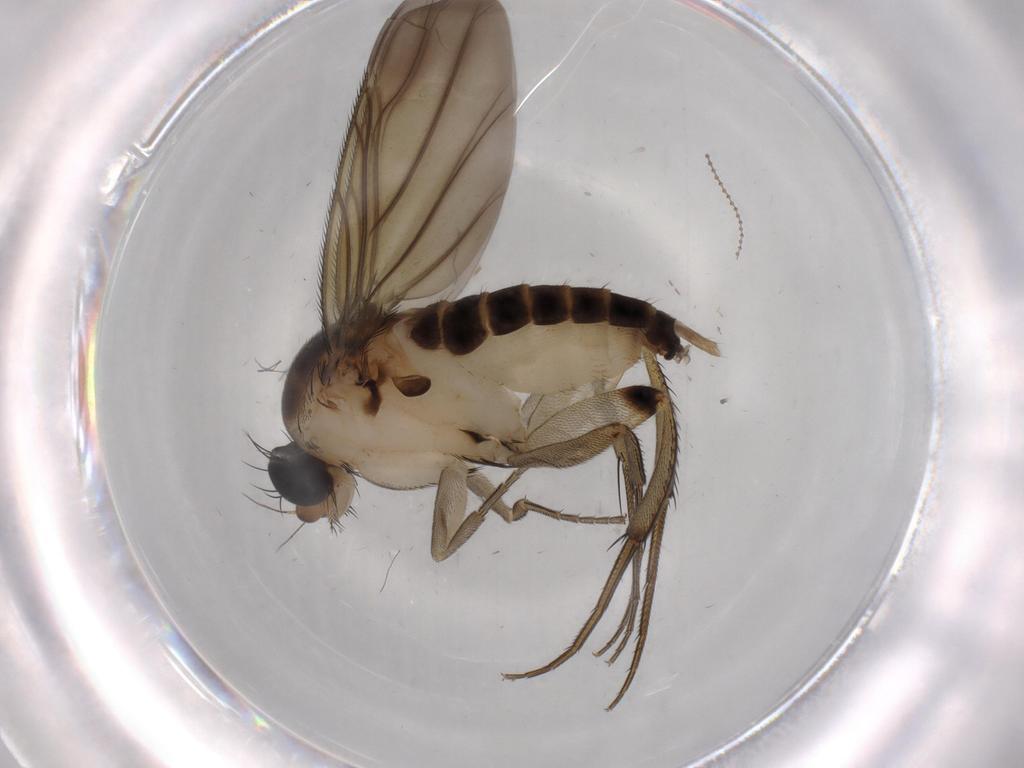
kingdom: Animalia
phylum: Arthropoda
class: Insecta
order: Diptera
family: Phoridae
